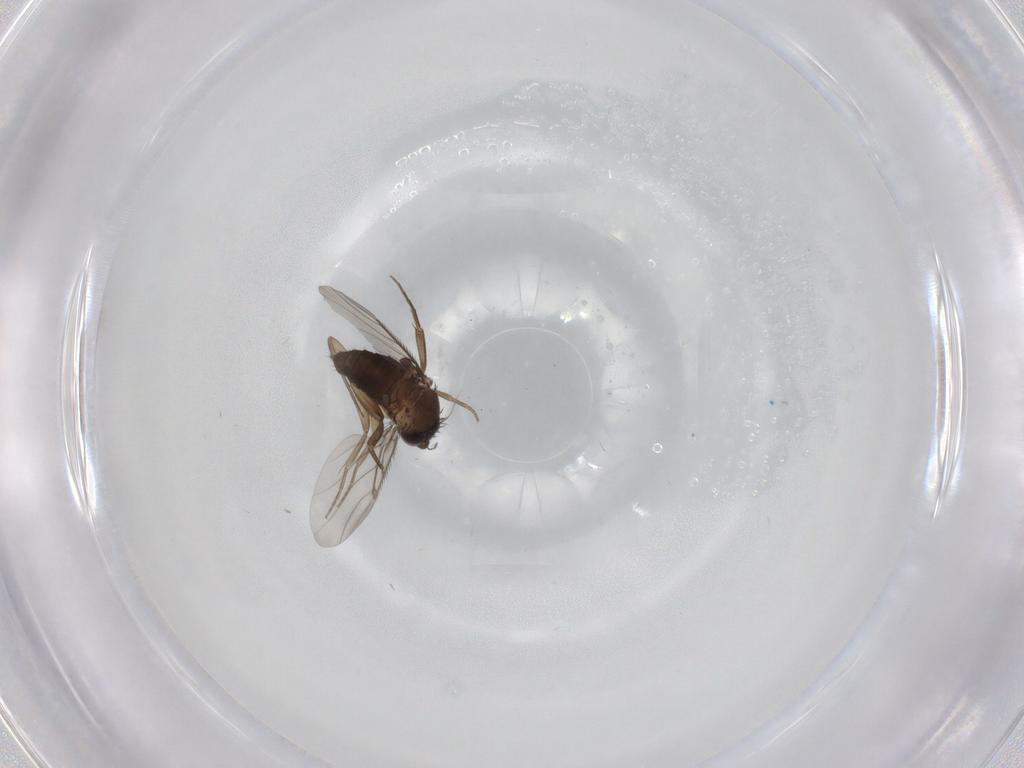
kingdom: Animalia
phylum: Arthropoda
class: Insecta
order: Diptera
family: Phoridae
